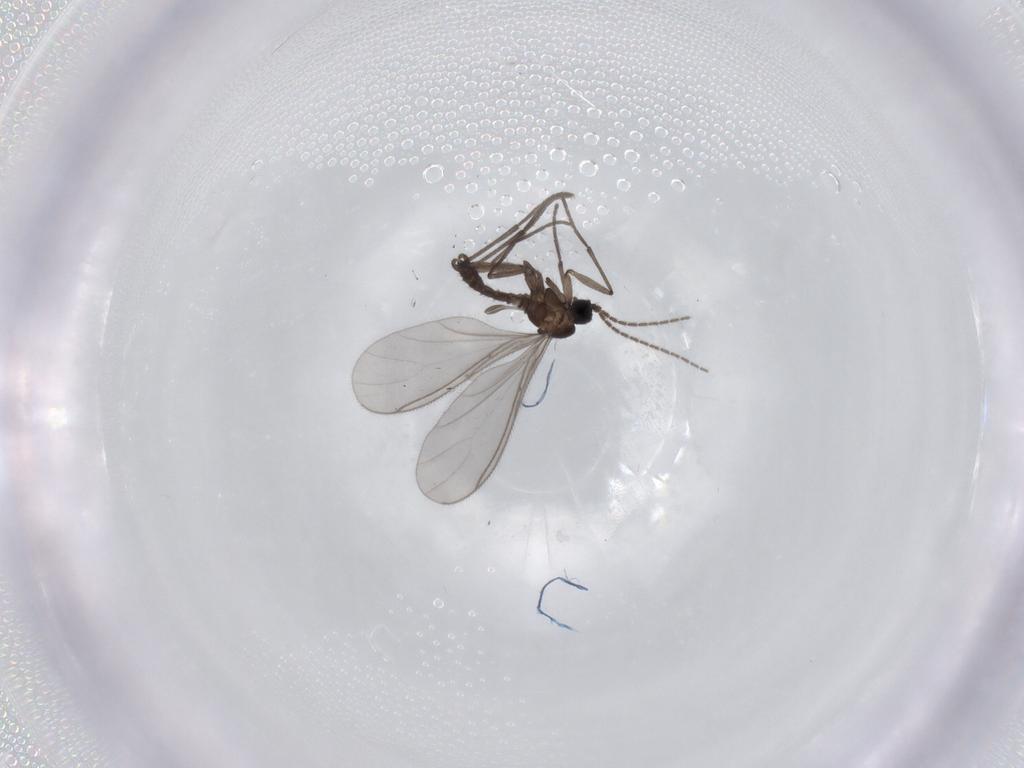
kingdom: Animalia
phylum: Arthropoda
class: Insecta
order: Diptera
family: Sciaridae
